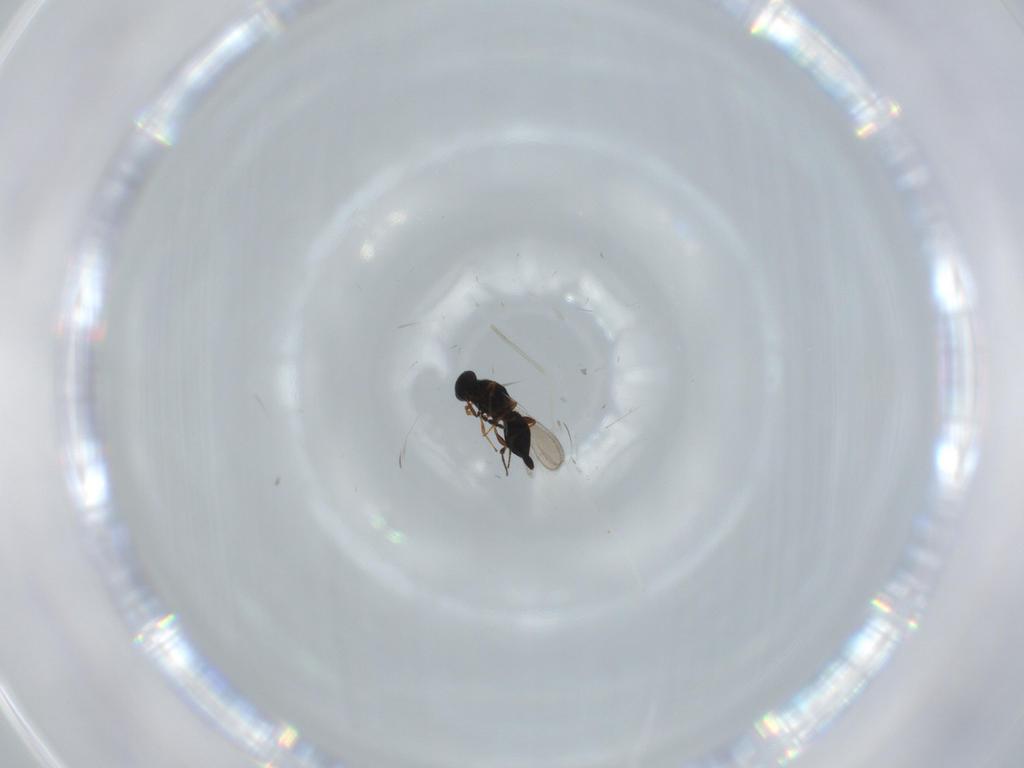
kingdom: Animalia
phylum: Arthropoda
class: Insecta
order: Hymenoptera
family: Platygastridae
